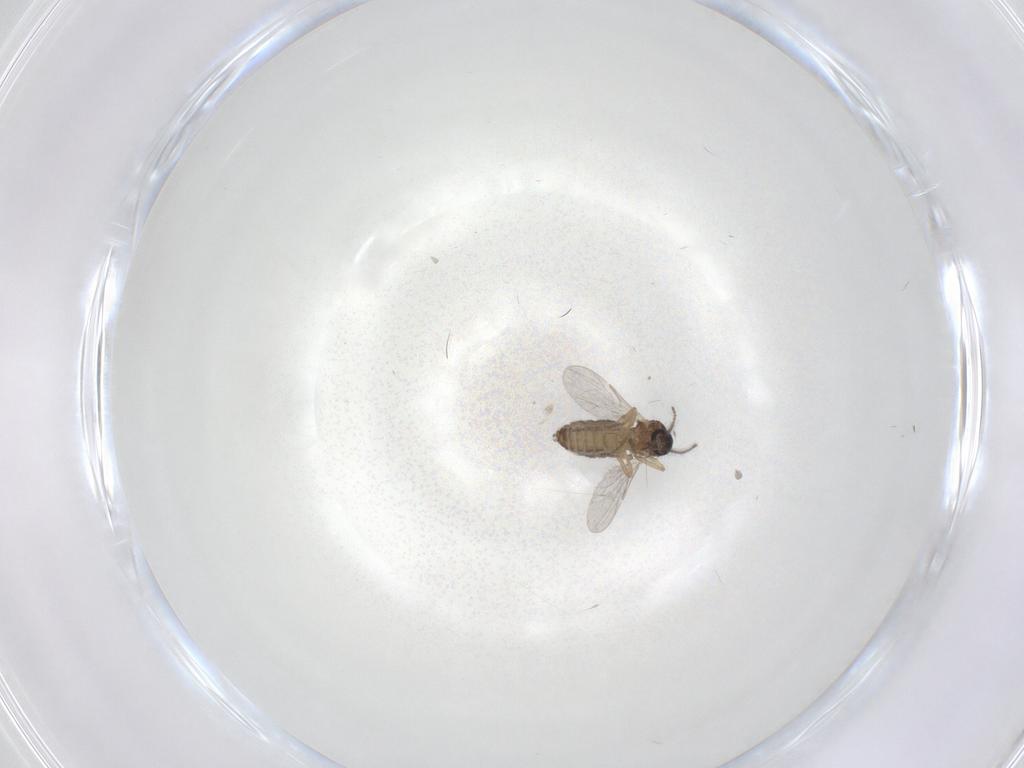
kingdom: Animalia
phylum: Arthropoda
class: Insecta
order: Diptera
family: Ceratopogonidae
